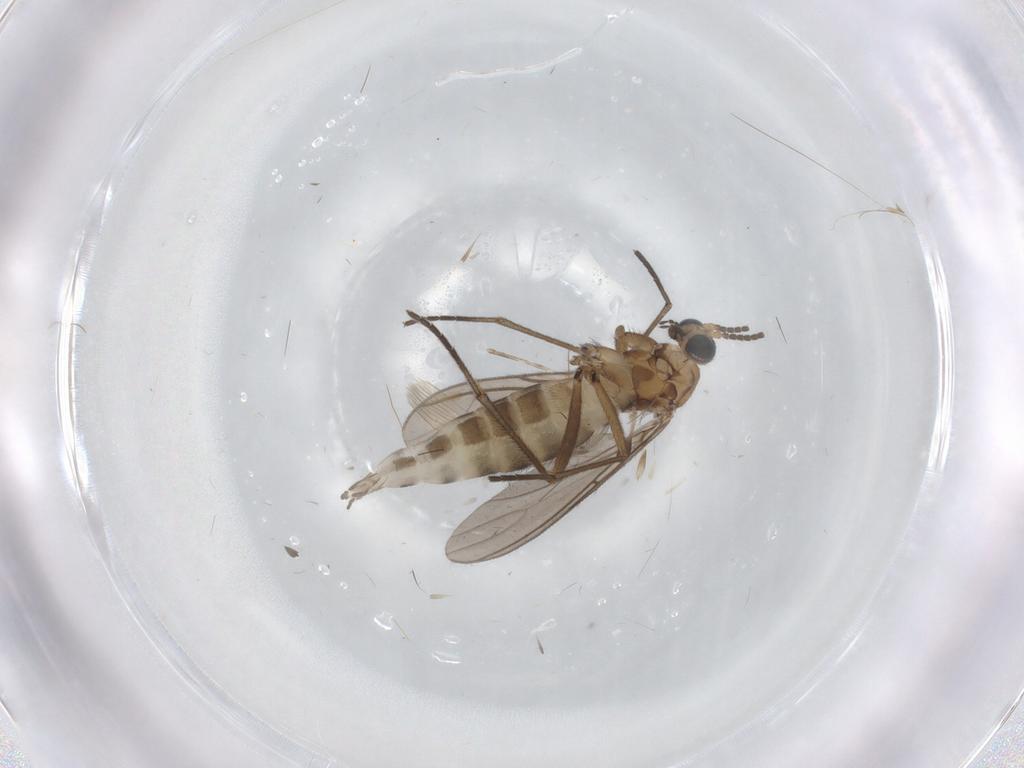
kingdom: Animalia
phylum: Arthropoda
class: Insecta
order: Diptera
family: Sciaridae
